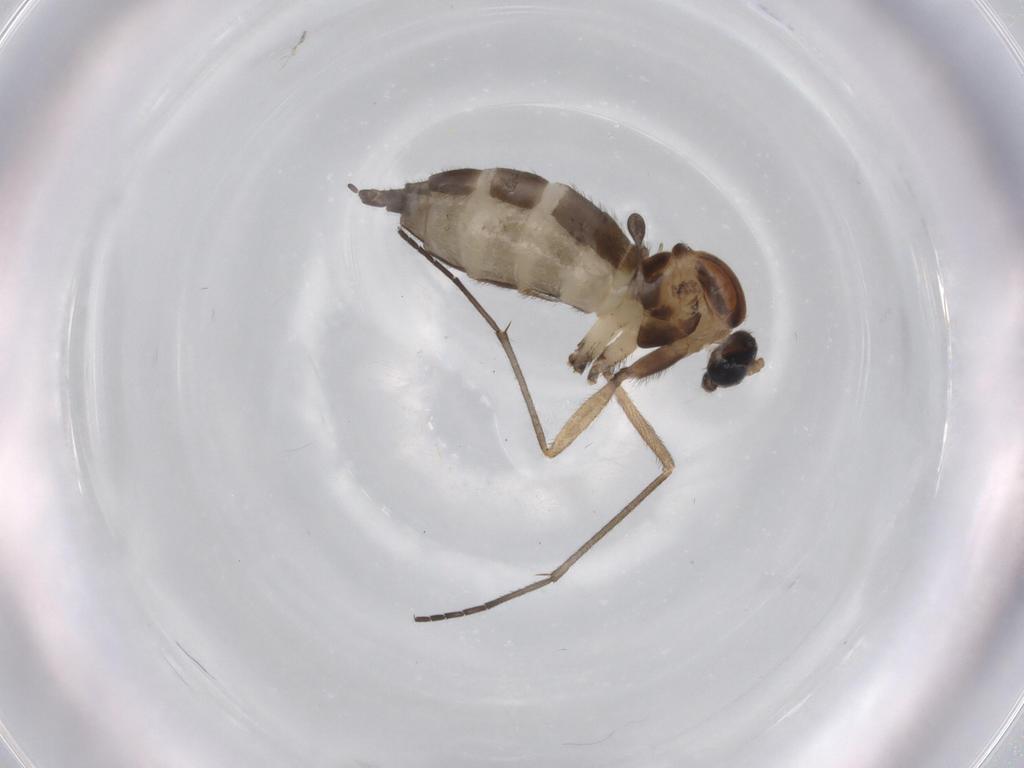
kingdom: Animalia
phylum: Arthropoda
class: Insecta
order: Diptera
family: Sciaridae
